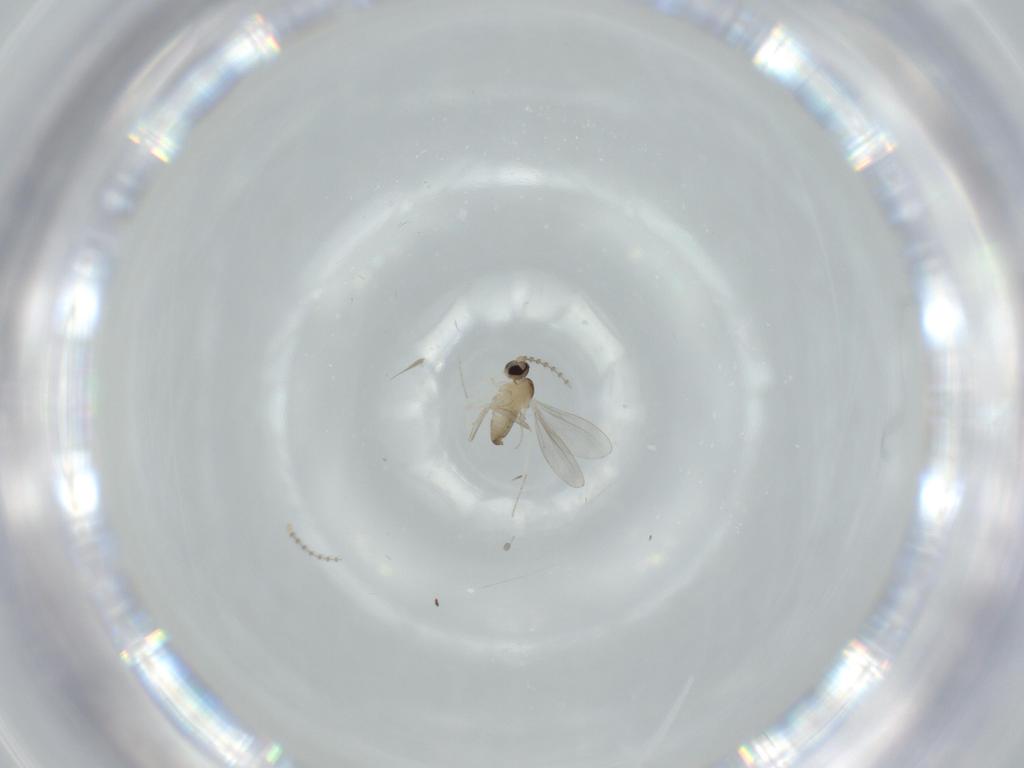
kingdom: Animalia
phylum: Arthropoda
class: Insecta
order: Diptera
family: Cecidomyiidae
